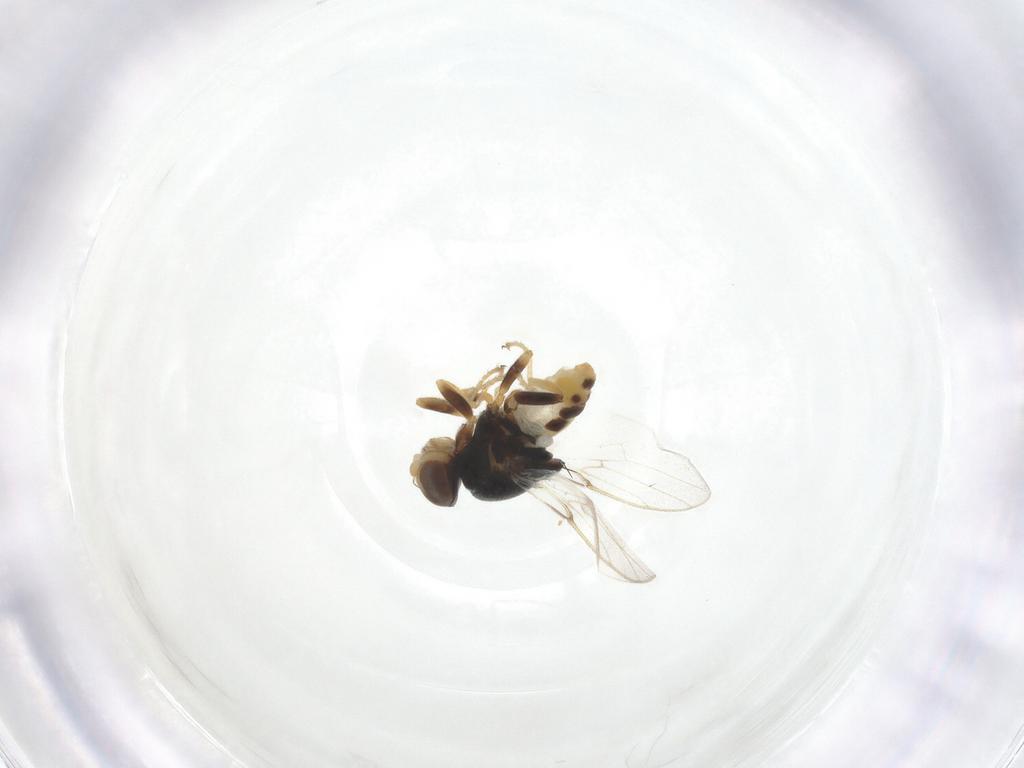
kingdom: Animalia
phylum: Arthropoda
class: Insecta
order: Diptera
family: Chloropidae
